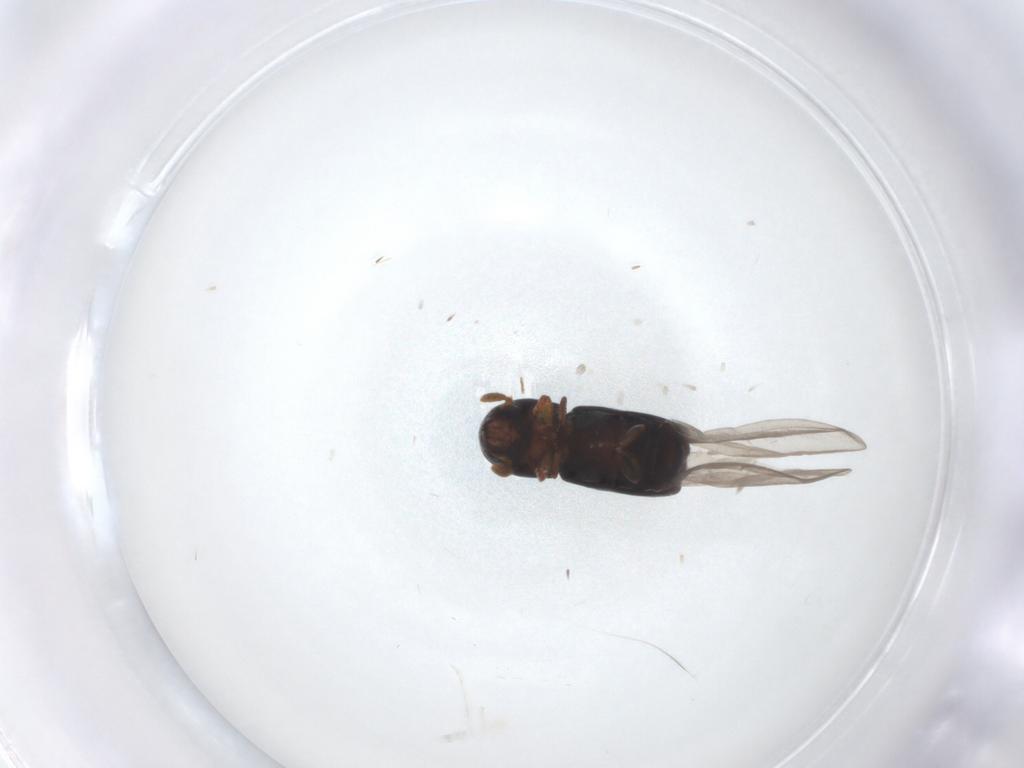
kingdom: Animalia
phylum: Arthropoda
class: Insecta
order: Coleoptera
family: Curculionidae
